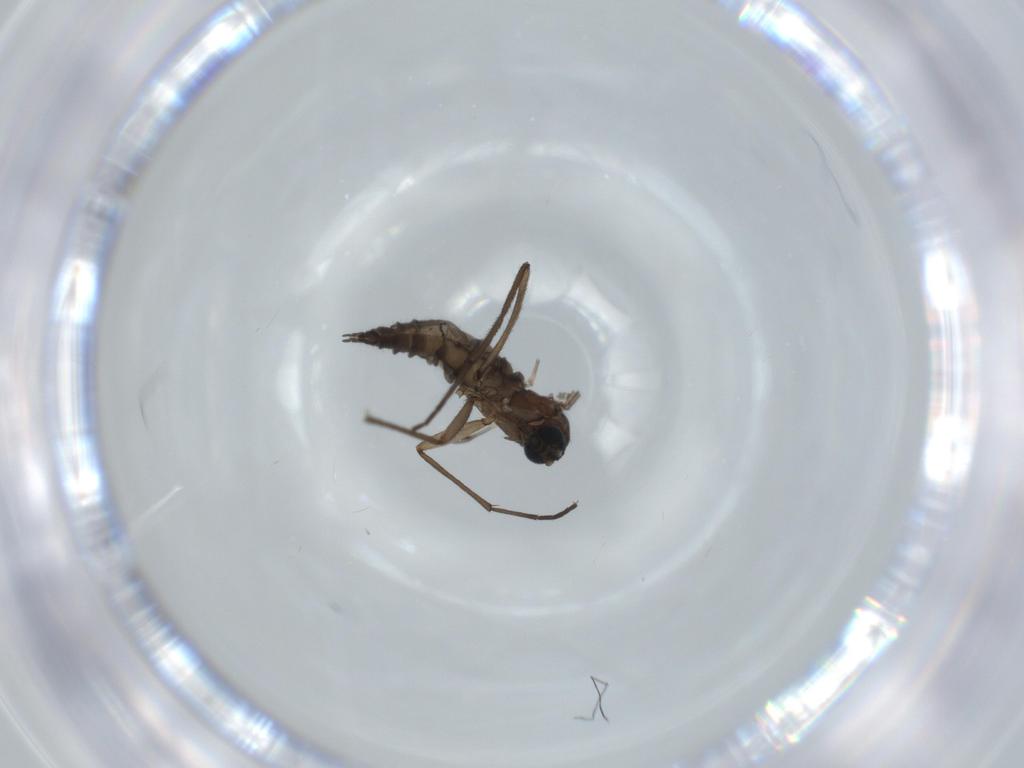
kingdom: Animalia
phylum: Arthropoda
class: Insecta
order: Diptera
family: Sciaridae
